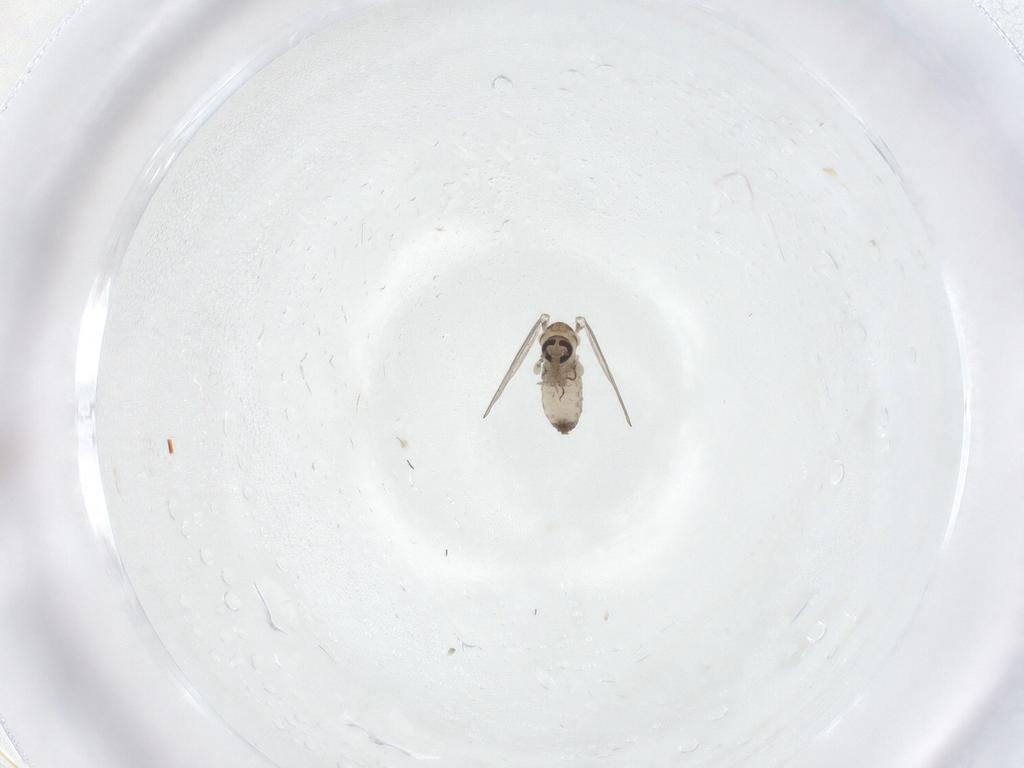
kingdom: Animalia
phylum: Arthropoda
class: Insecta
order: Diptera
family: Psychodidae
